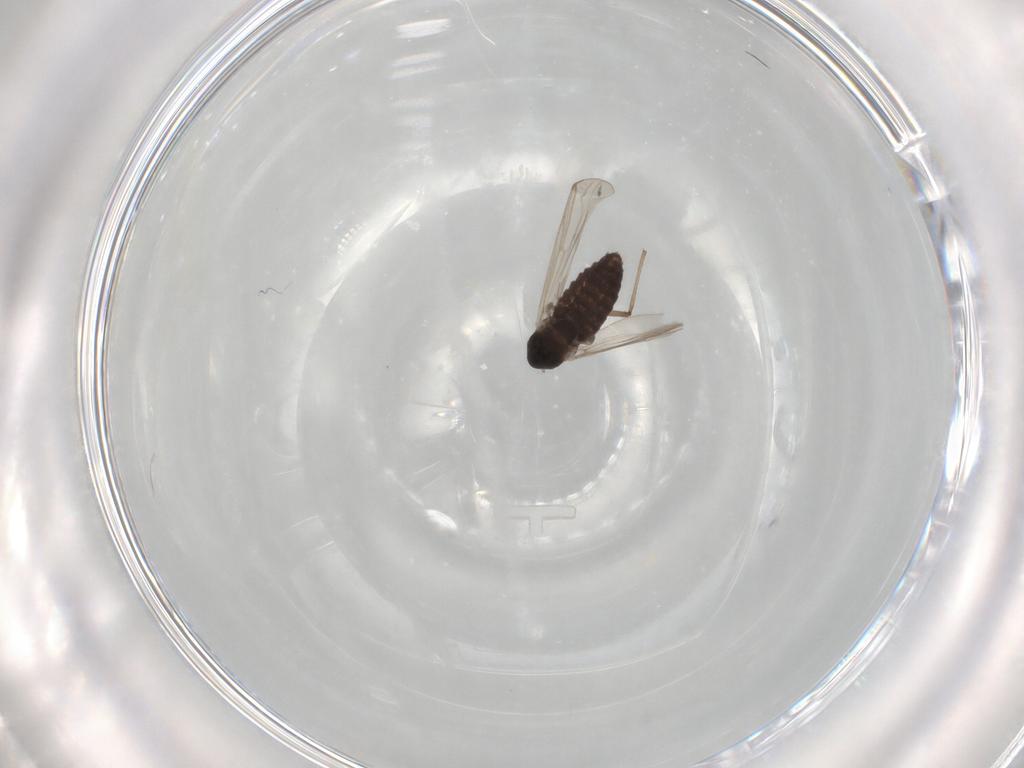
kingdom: Animalia
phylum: Arthropoda
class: Insecta
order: Diptera
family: Chironomidae
